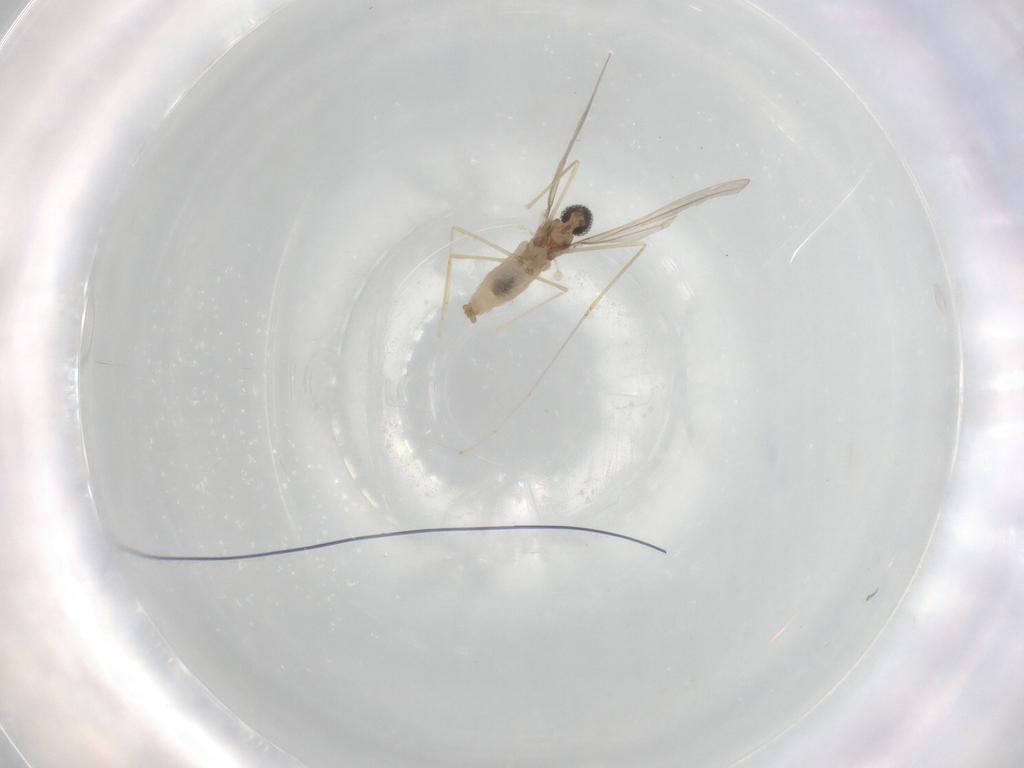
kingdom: Animalia
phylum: Arthropoda
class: Insecta
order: Diptera
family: Cecidomyiidae
